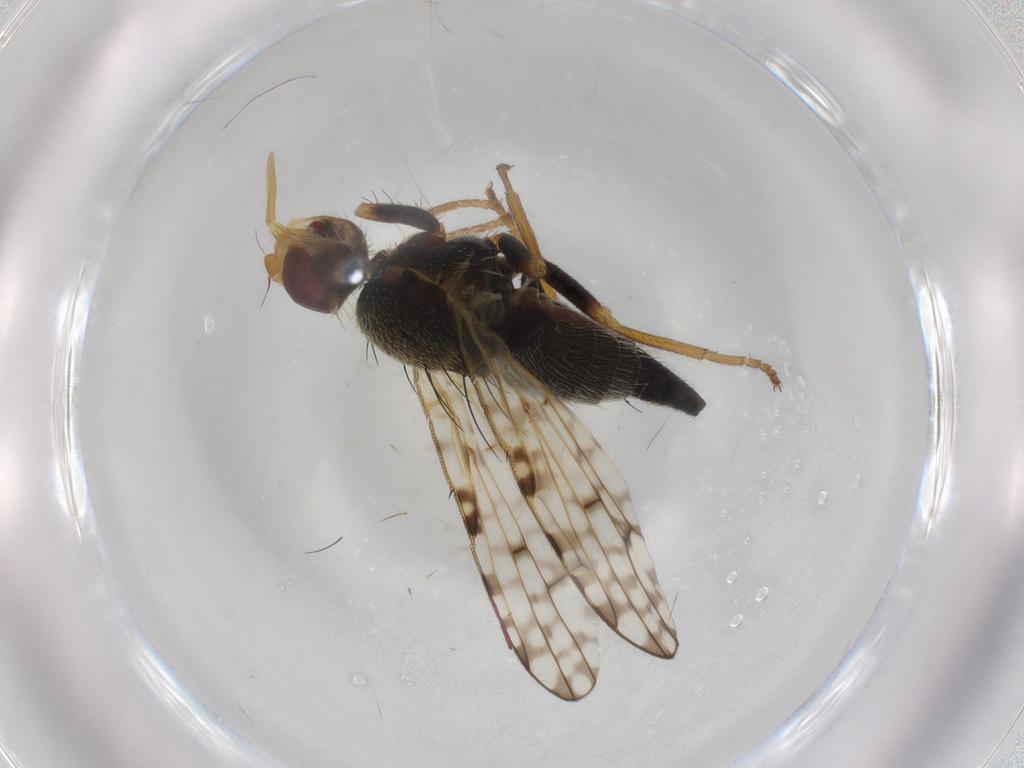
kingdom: Animalia
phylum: Arthropoda
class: Insecta
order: Diptera
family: Tephritidae
